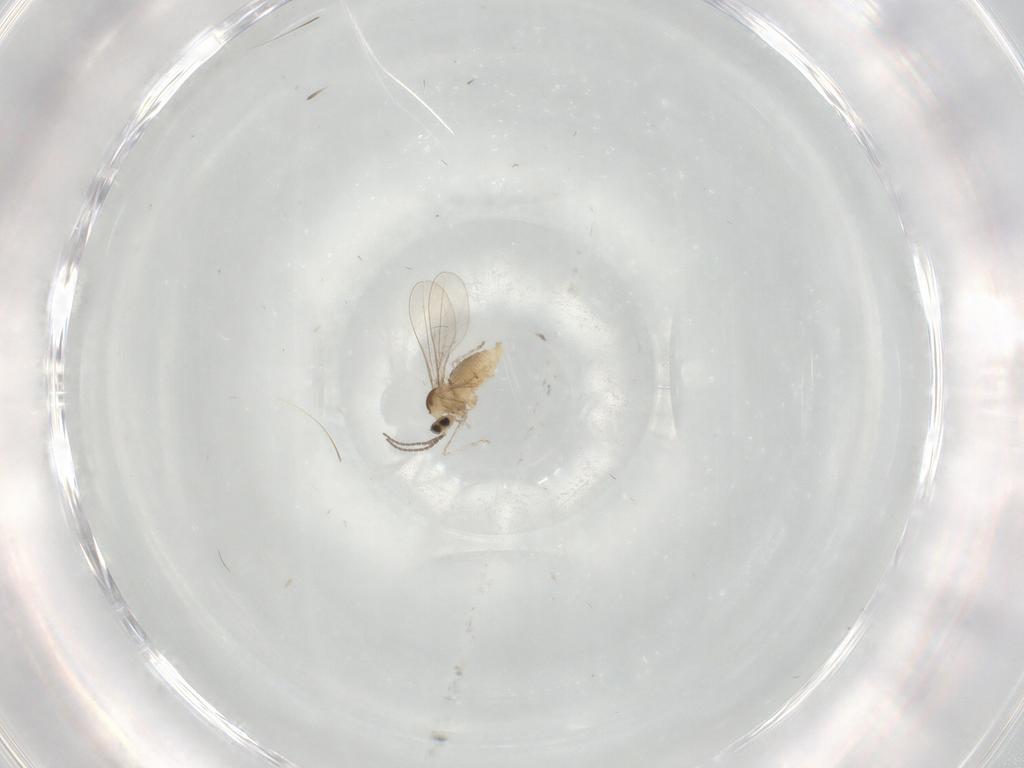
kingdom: Animalia
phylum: Arthropoda
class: Insecta
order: Diptera
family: Cecidomyiidae
